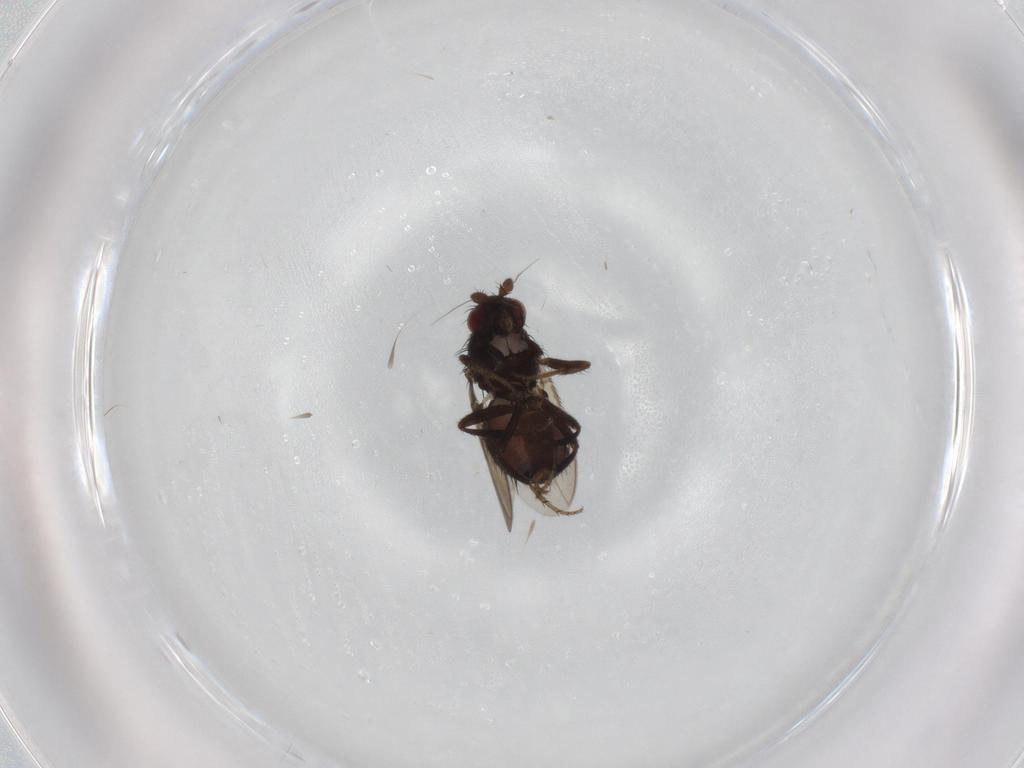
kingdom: Animalia
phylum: Arthropoda
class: Insecta
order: Diptera
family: Sphaeroceridae
